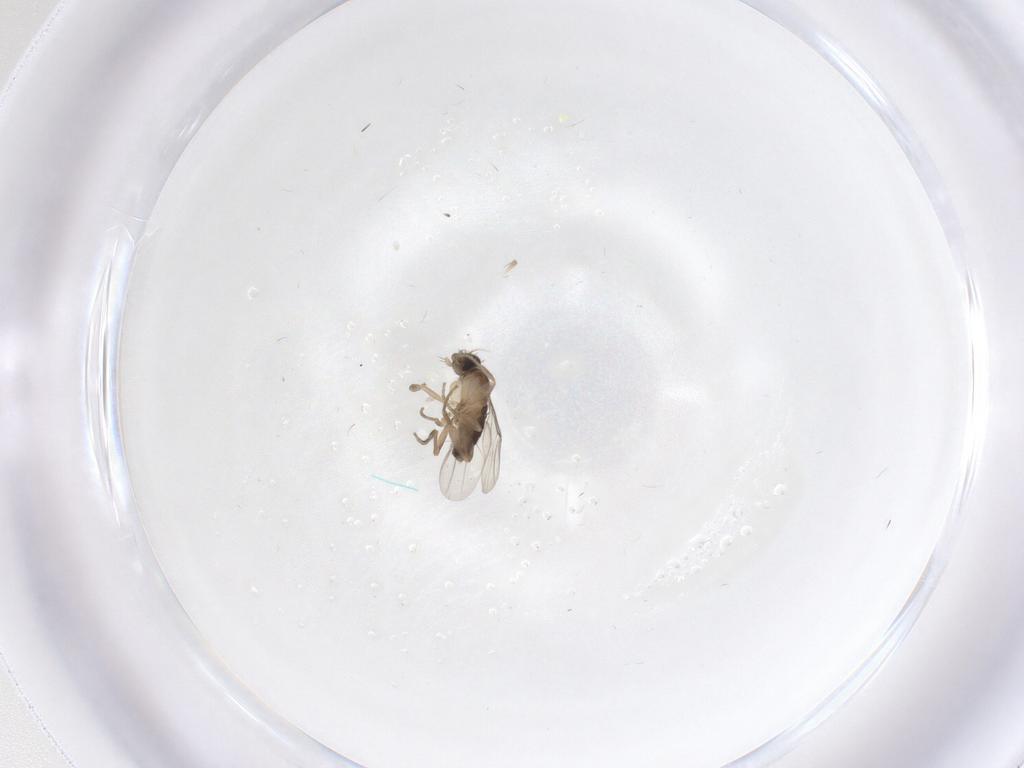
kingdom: Animalia
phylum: Arthropoda
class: Insecta
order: Diptera
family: Phoridae
